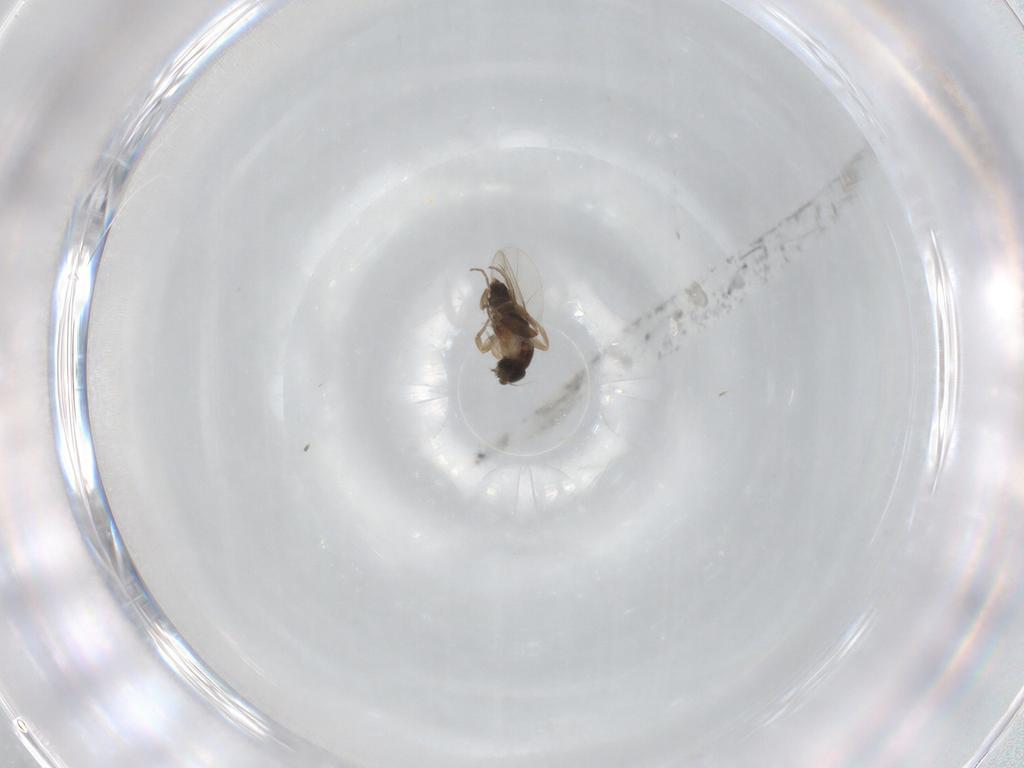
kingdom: Animalia
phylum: Arthropoda
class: Insecta
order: Diptera
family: Phoridae
